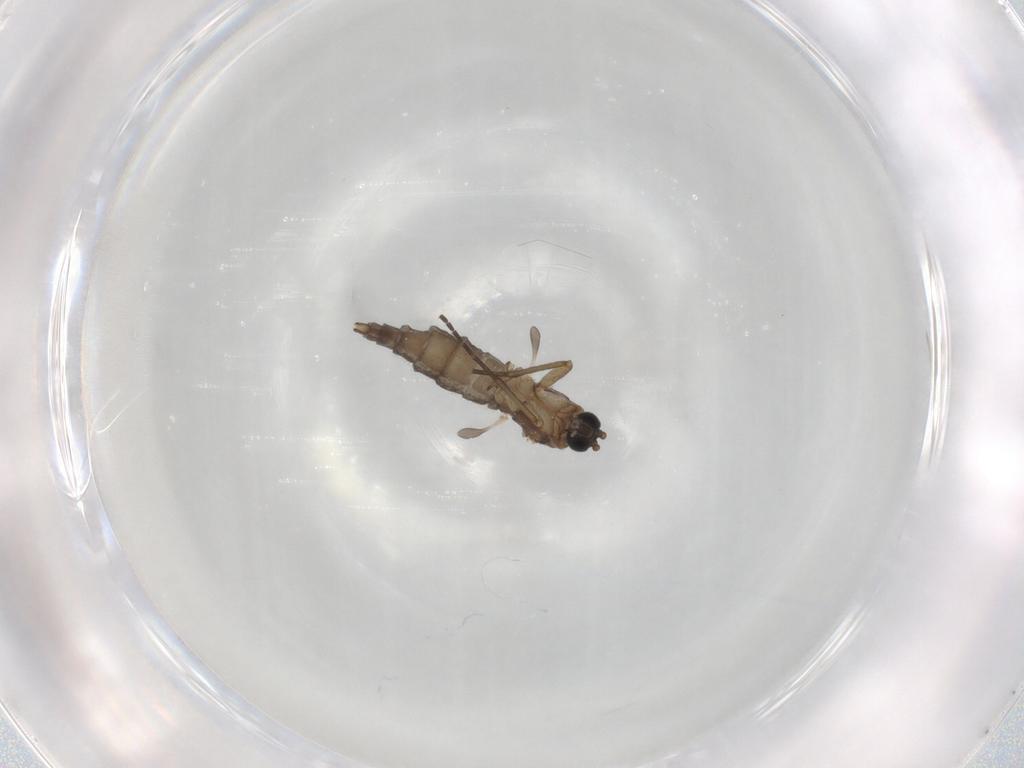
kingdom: Animalia
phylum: Arthropoda
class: Insecta
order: Diptera
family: Sciaridae
